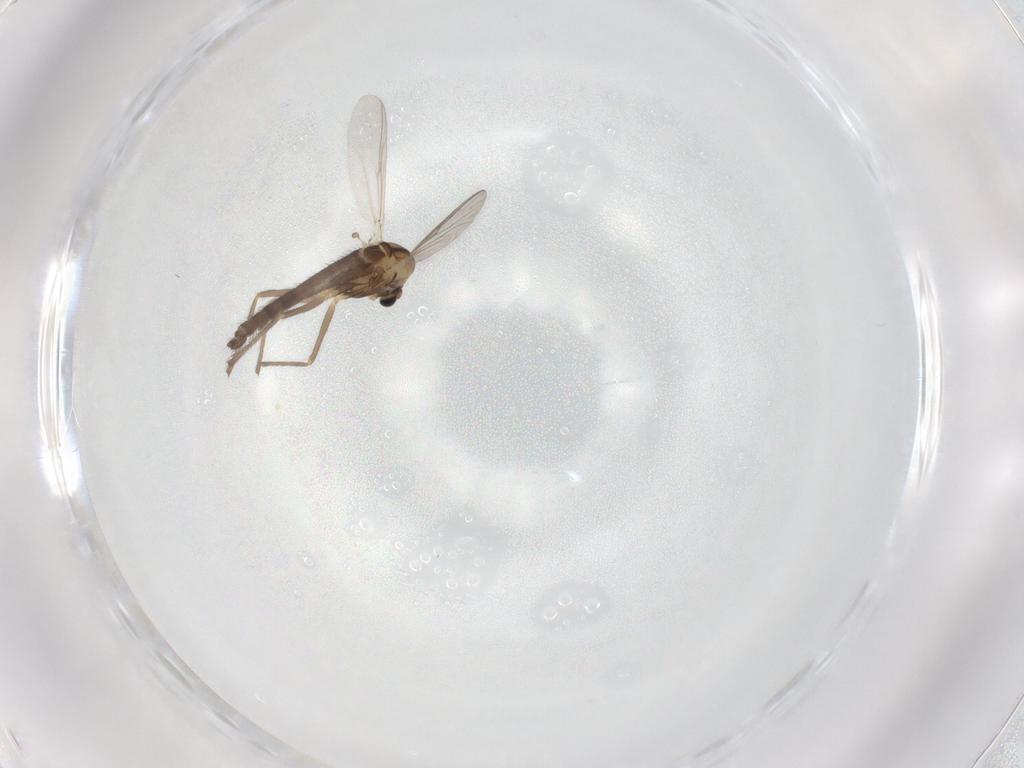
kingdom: Animalia
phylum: Arthropoda
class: Insecta
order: Diptera
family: Chironomidae
